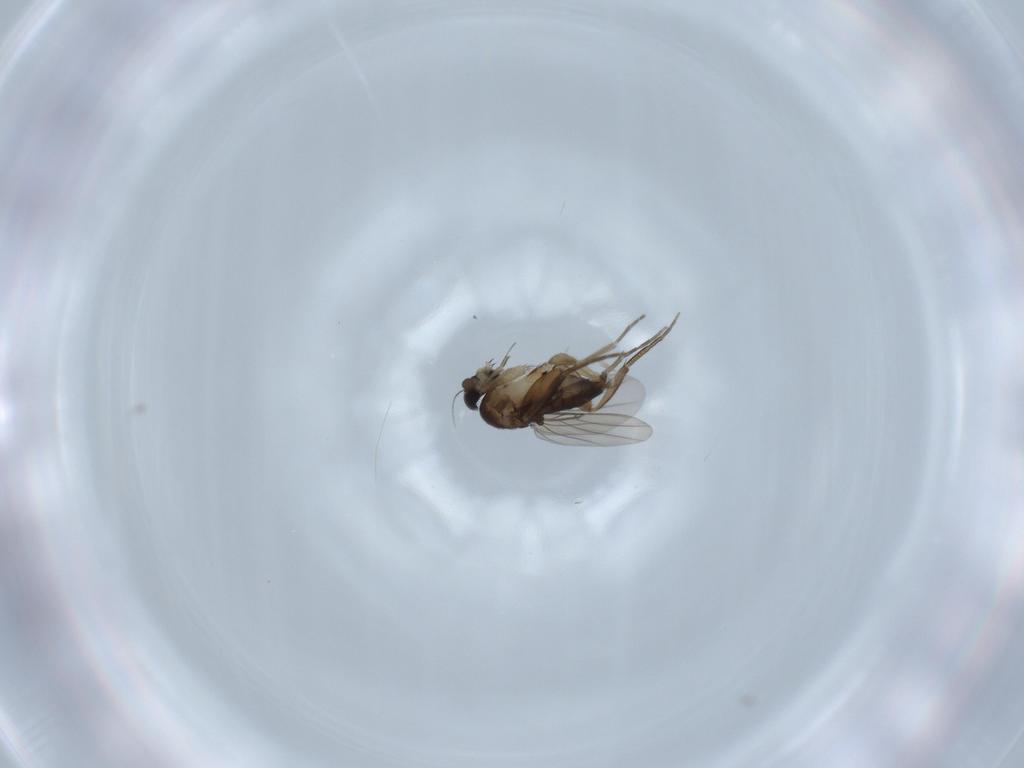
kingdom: Animalia
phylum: Arthropoda
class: Insecta
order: Diptera
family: Phoridae
